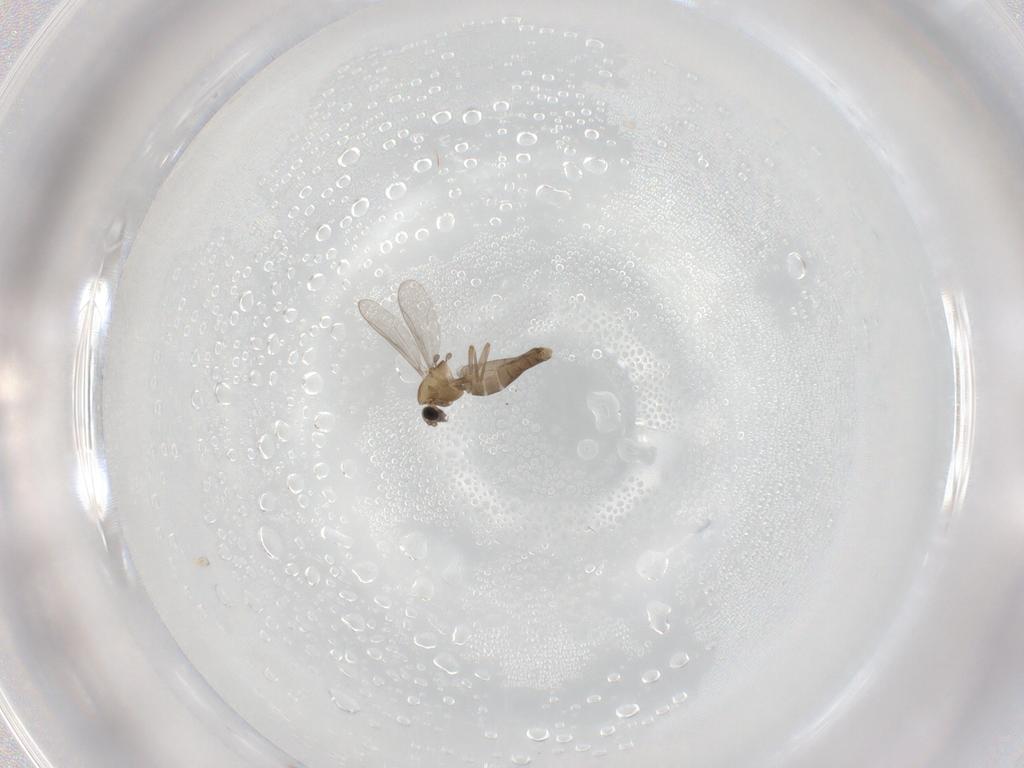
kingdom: Animalia
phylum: Arthropoda
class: Insecta
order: Diptera
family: Chironomidae
